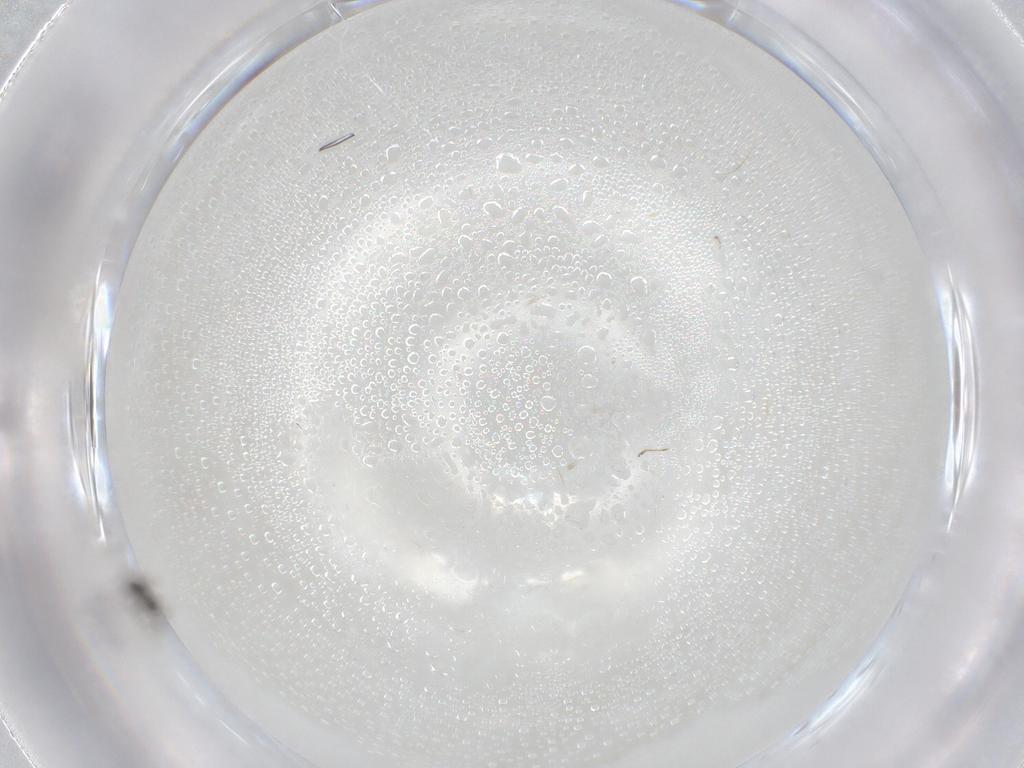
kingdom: Animalia
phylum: Arthropoda
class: Insecta
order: Hymenoptera
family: Mymaridae
